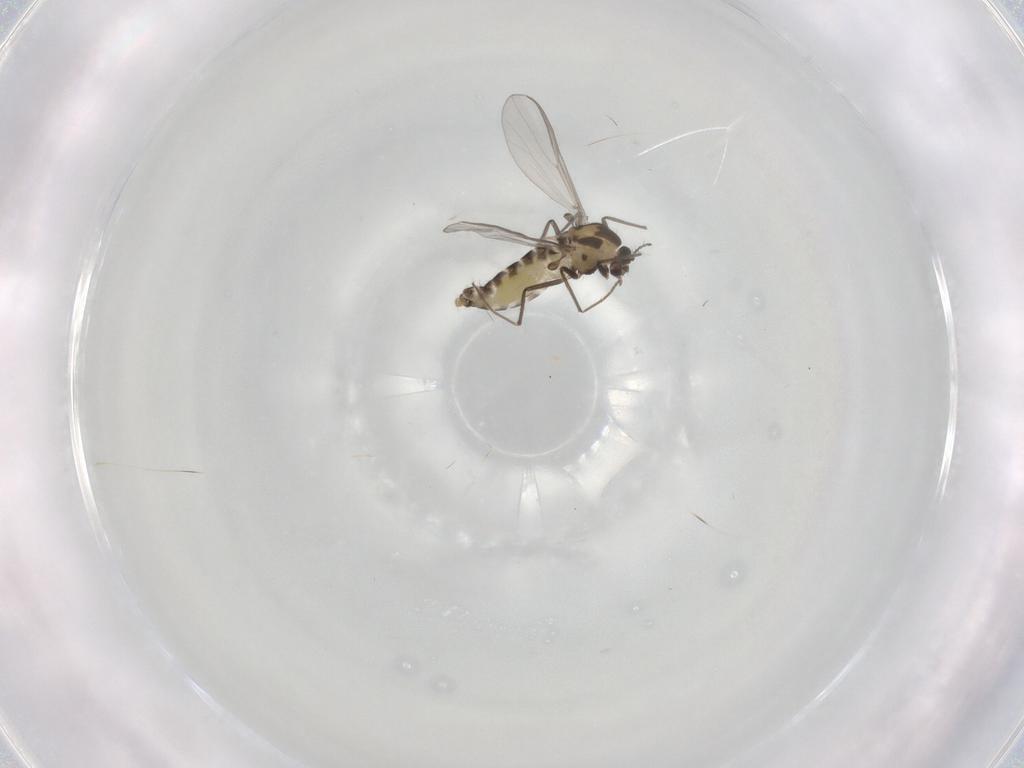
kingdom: Animalia
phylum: Arthropoda
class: Insecta
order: Diptera
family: Chironomidae
